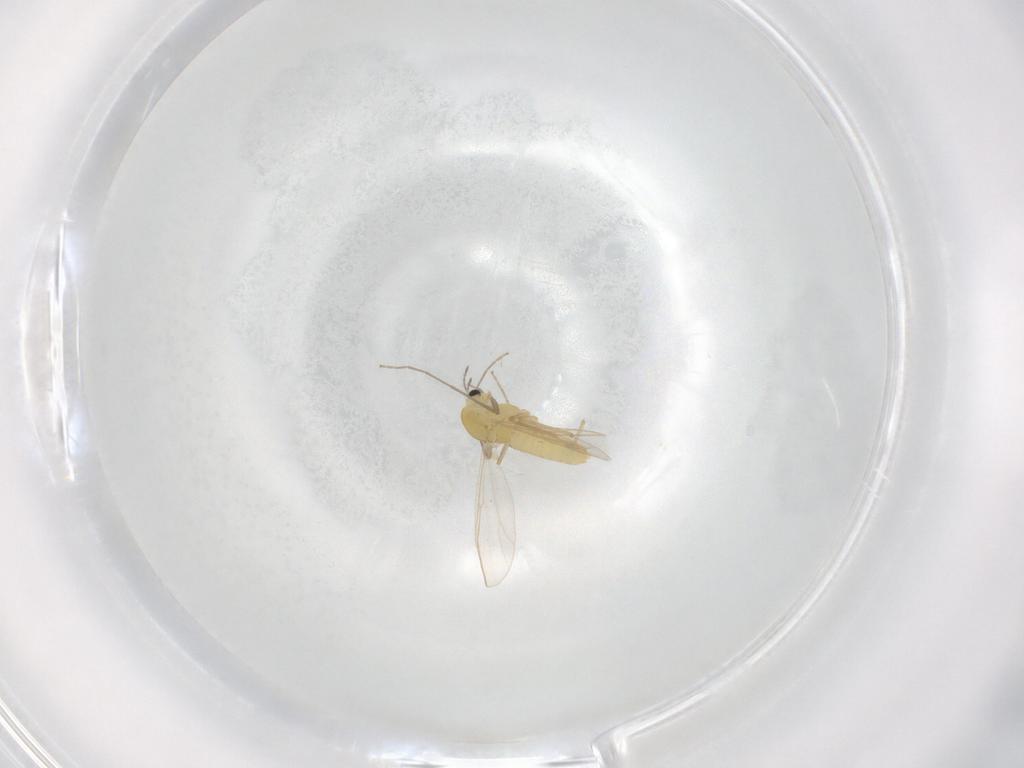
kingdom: Animalia
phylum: Arthropoda
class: Insecta
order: Diptera
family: Chironomidae
